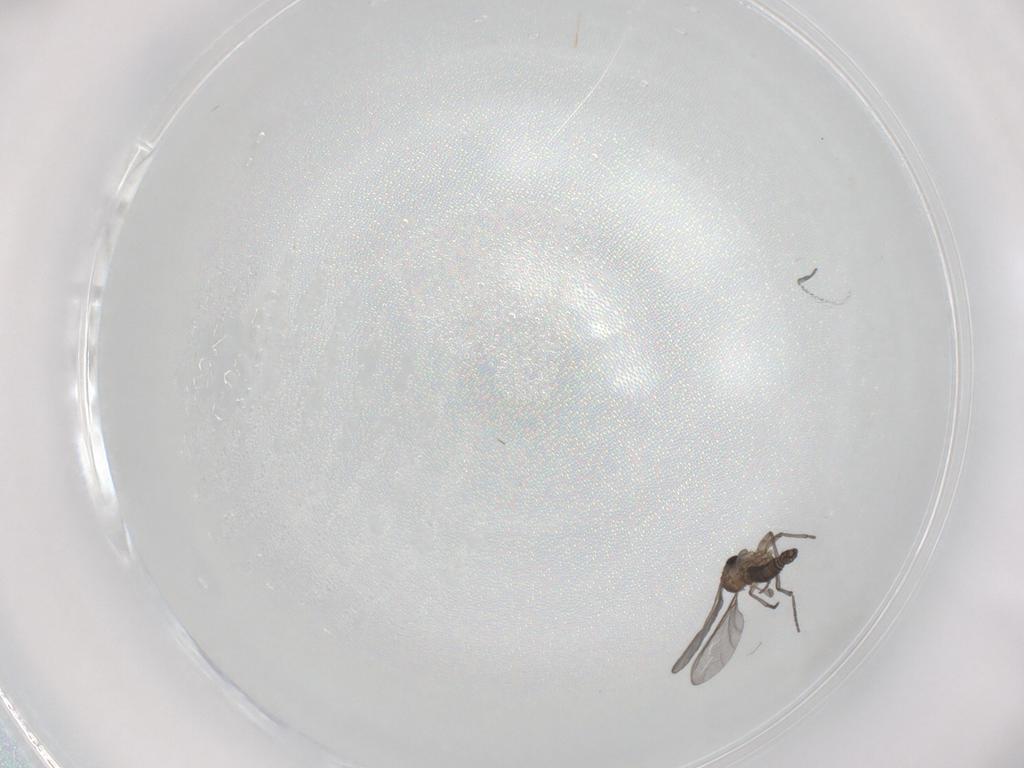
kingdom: Animalia
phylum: Arthropoda
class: Insecta
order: Diptera
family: Sciaridae
